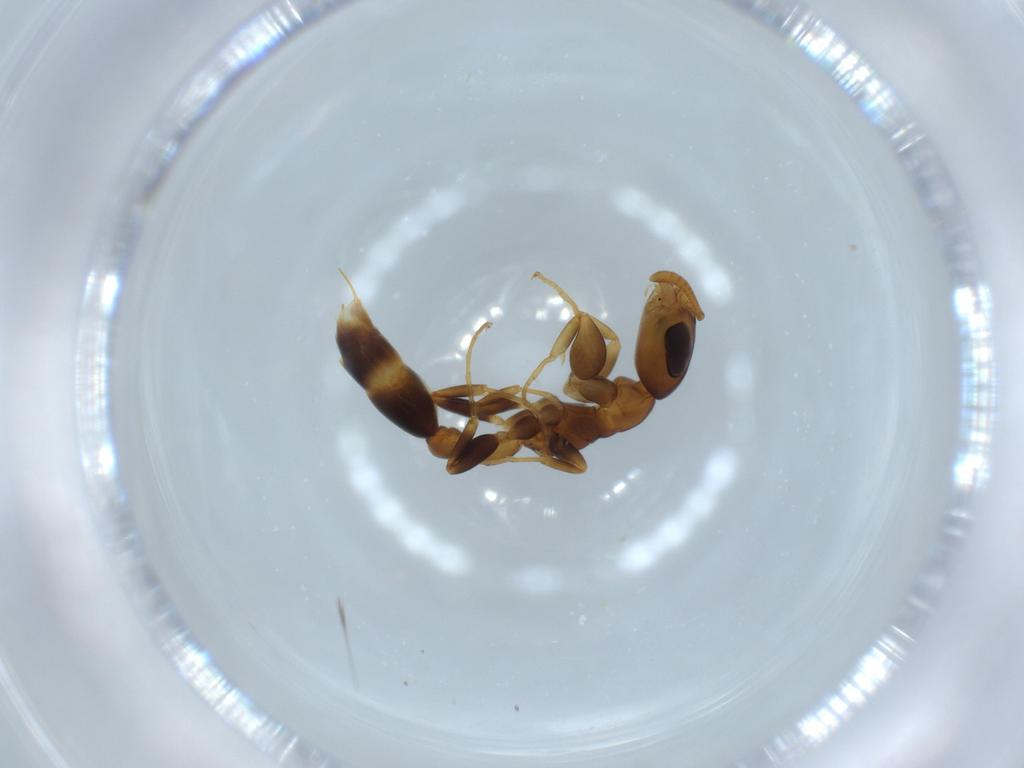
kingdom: Animalia
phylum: Arthropoda
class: Insecta
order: Hymenoptera
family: Formicidae
